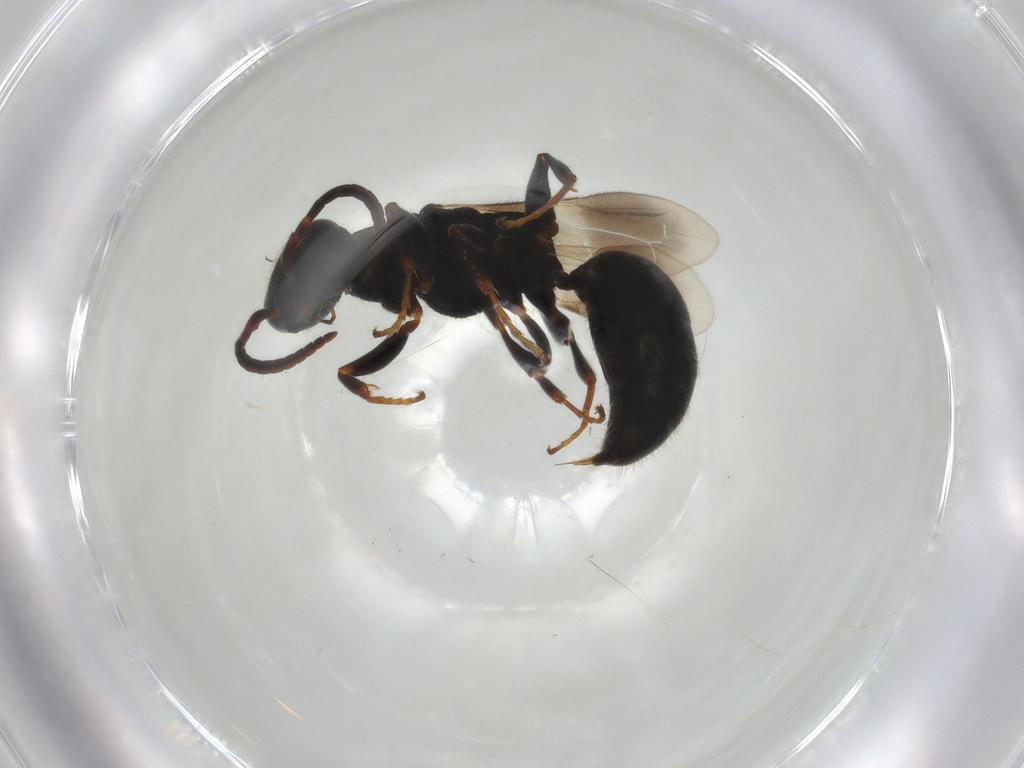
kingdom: Animalia
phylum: Arthropoda
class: Insecta
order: Hymenoptera
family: Bethylidae
